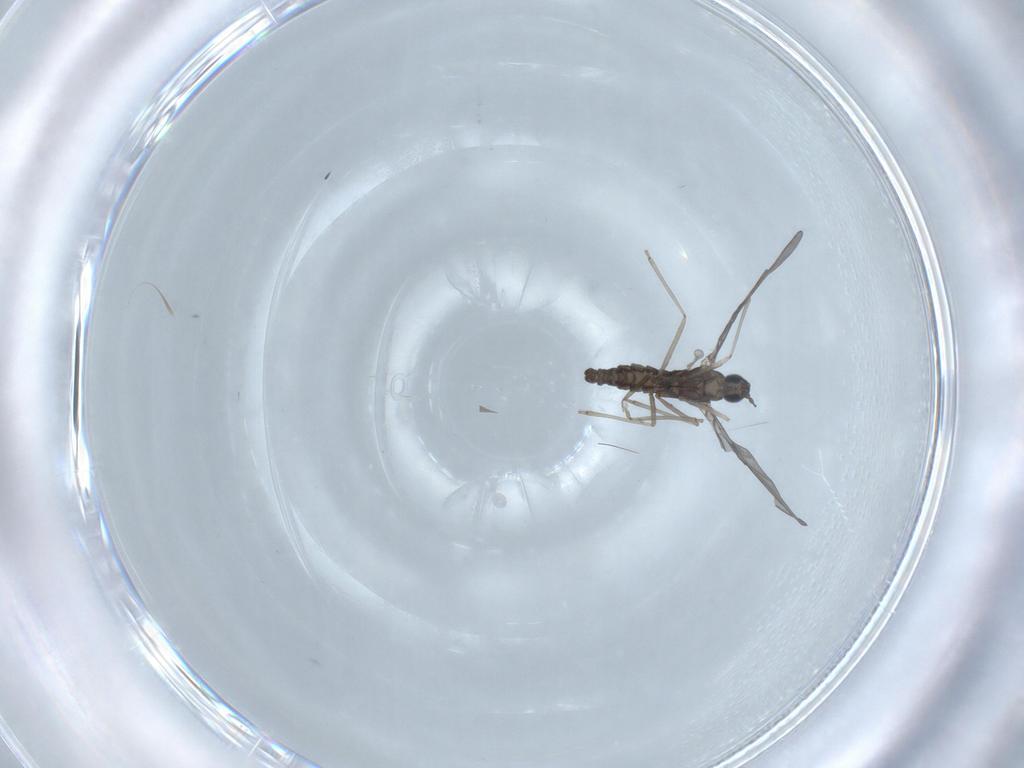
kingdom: Animalia
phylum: Arthropoda
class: Insecta
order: Diptera
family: Cecidomyiidae
